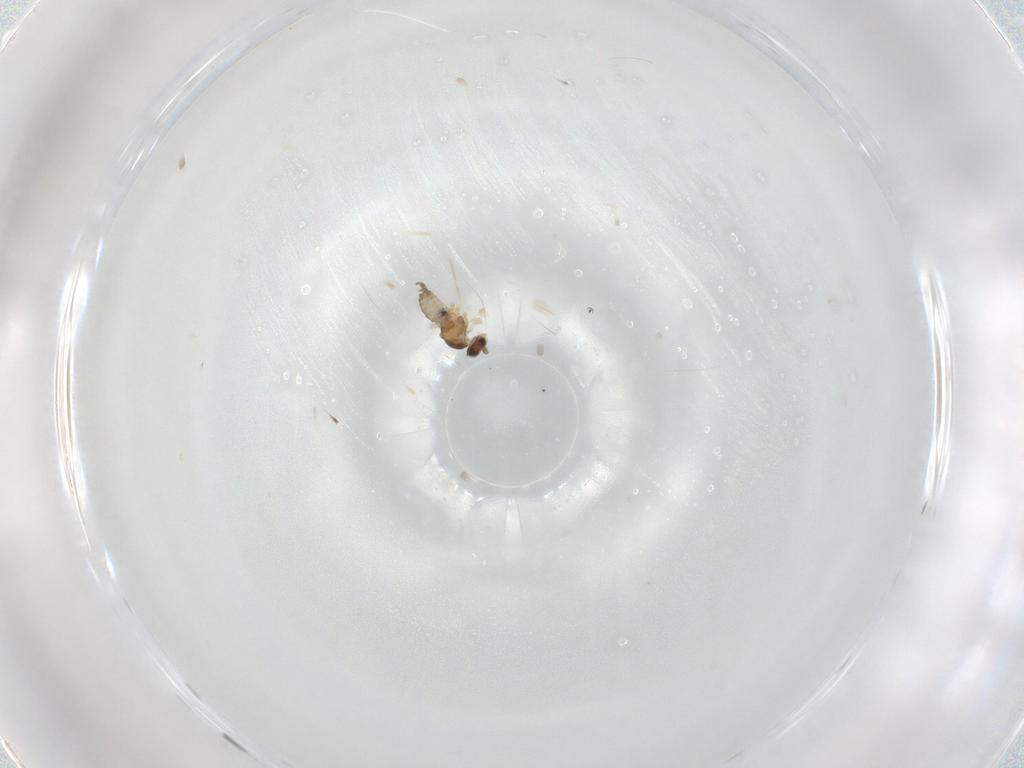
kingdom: Animalia
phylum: Arthropoda
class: Insecta
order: Diptera
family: Cecidomyiidae
